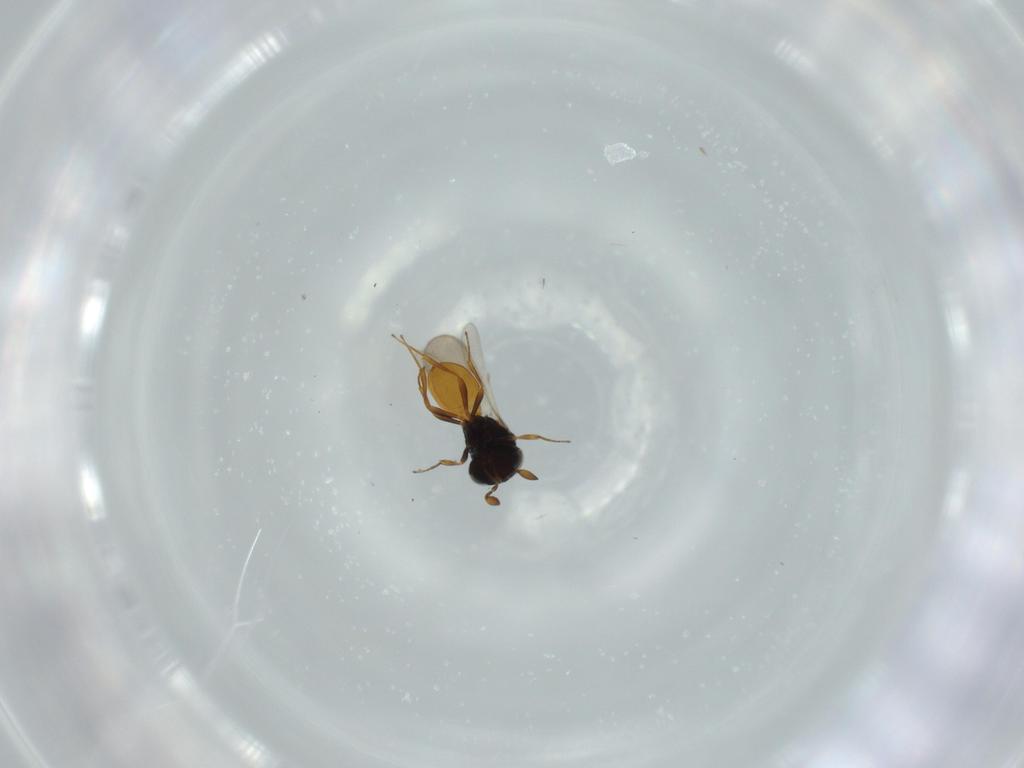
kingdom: Animalia
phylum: Arthropoda
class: Insecta
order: Hymenoptera
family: Scelionidae
